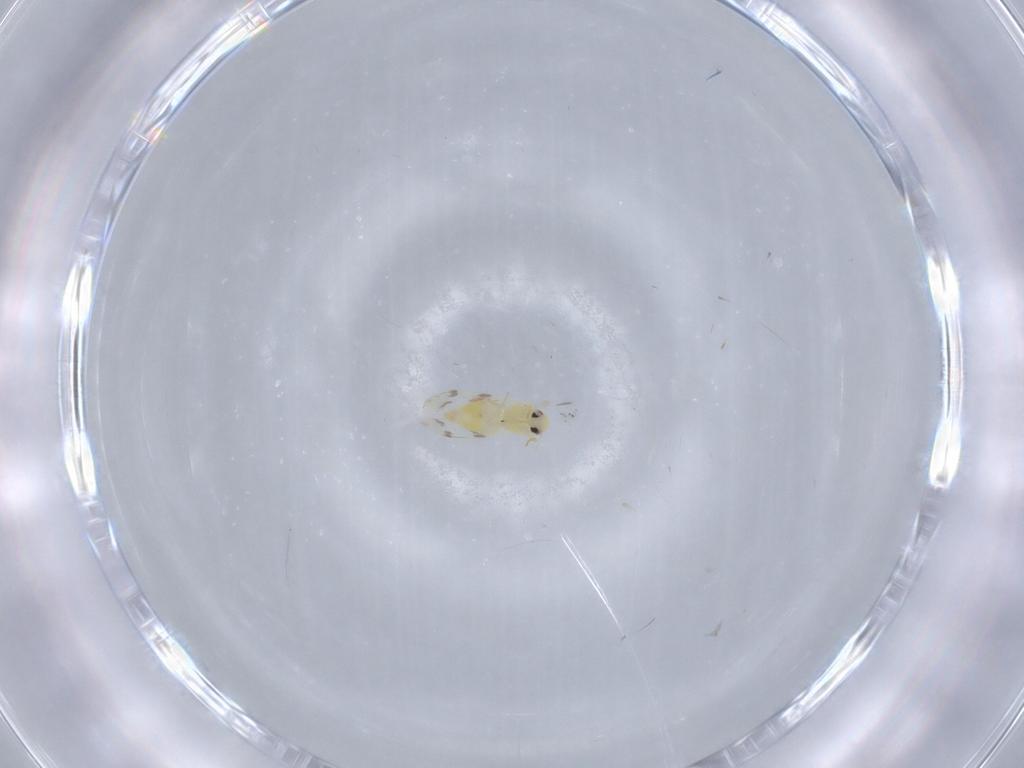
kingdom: Animalia
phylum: Arthropoda
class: Insecta
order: Hemiptera
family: Aleyrodidae
